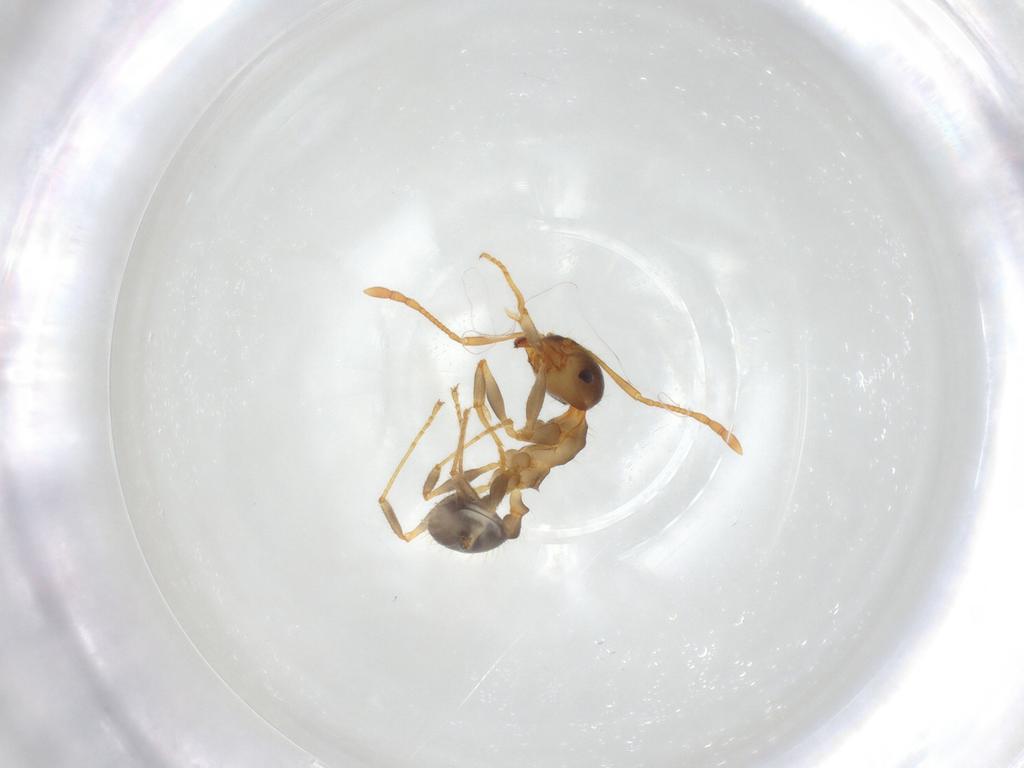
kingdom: Animalia
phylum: Arthropoda
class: Insecta
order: Hymenoptera
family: Formicidae
